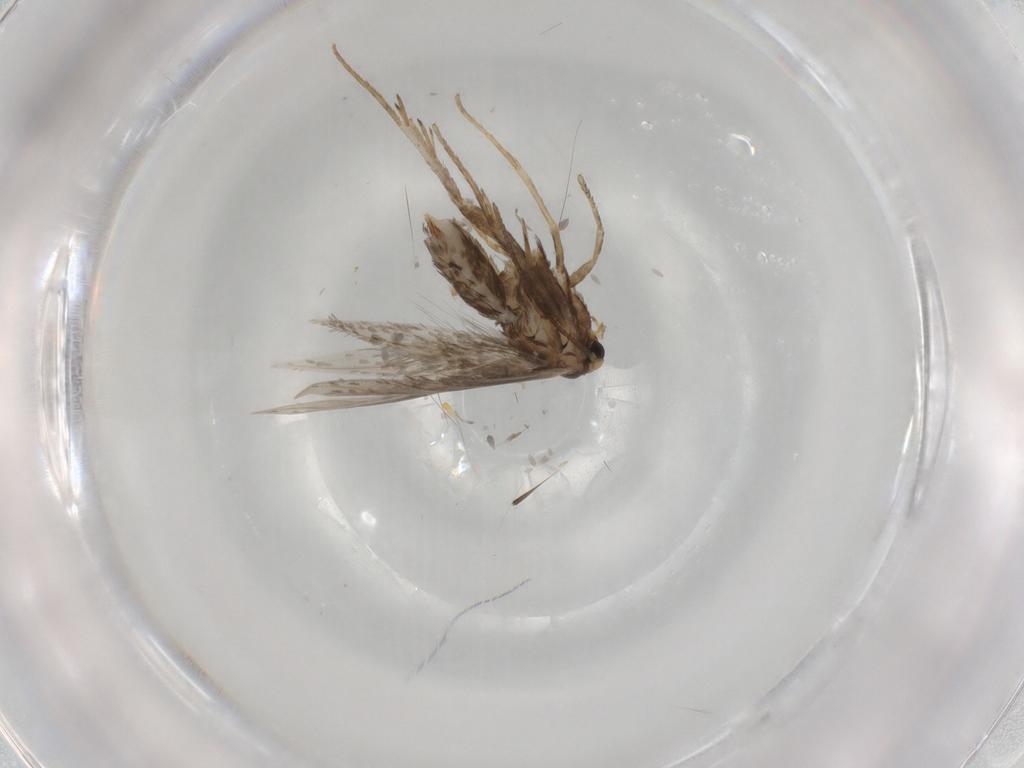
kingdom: Animalia
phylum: Arthropoda
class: Insecta
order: Lepidoptera
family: Nepticulidae
